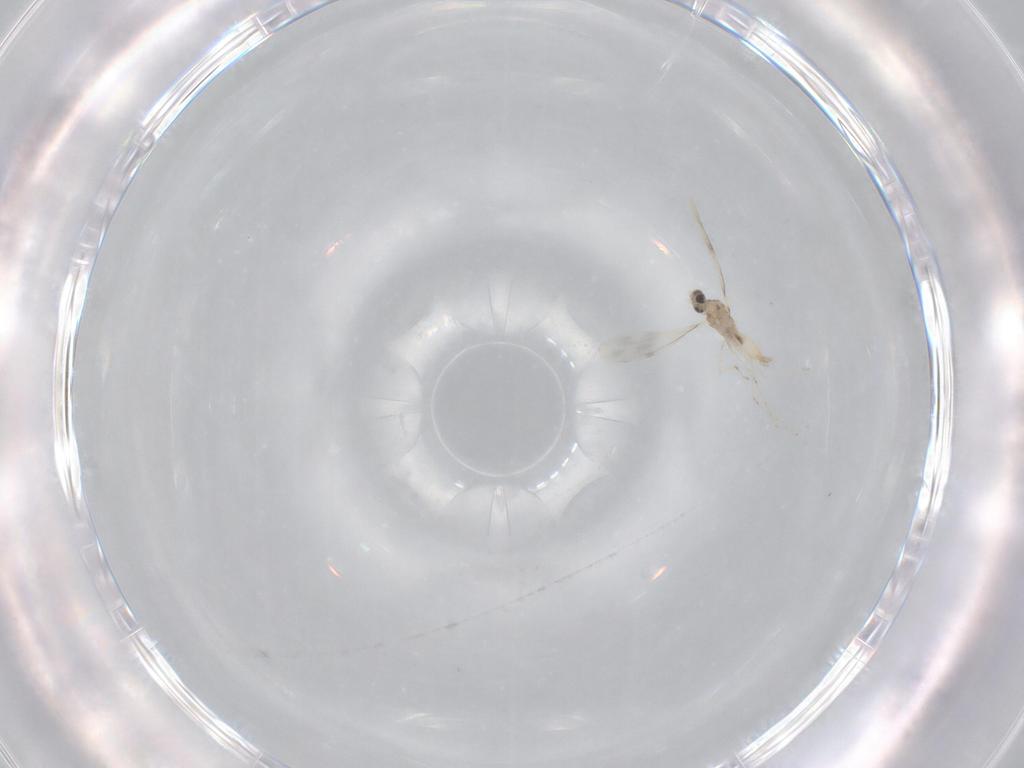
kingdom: Animalia
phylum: Arthropoda
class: Insecta
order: Diptera
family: Cecidomyiidae
